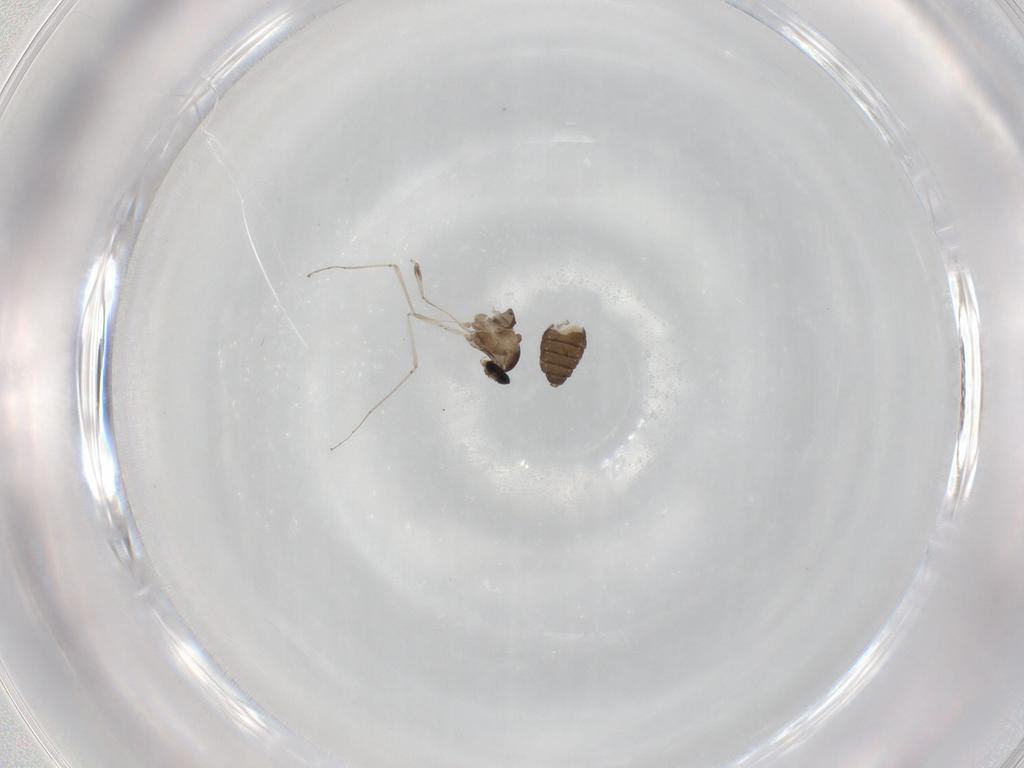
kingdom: Animalia
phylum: Arthropoda
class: Insecta
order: Diptera
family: Cecidomyiidae
